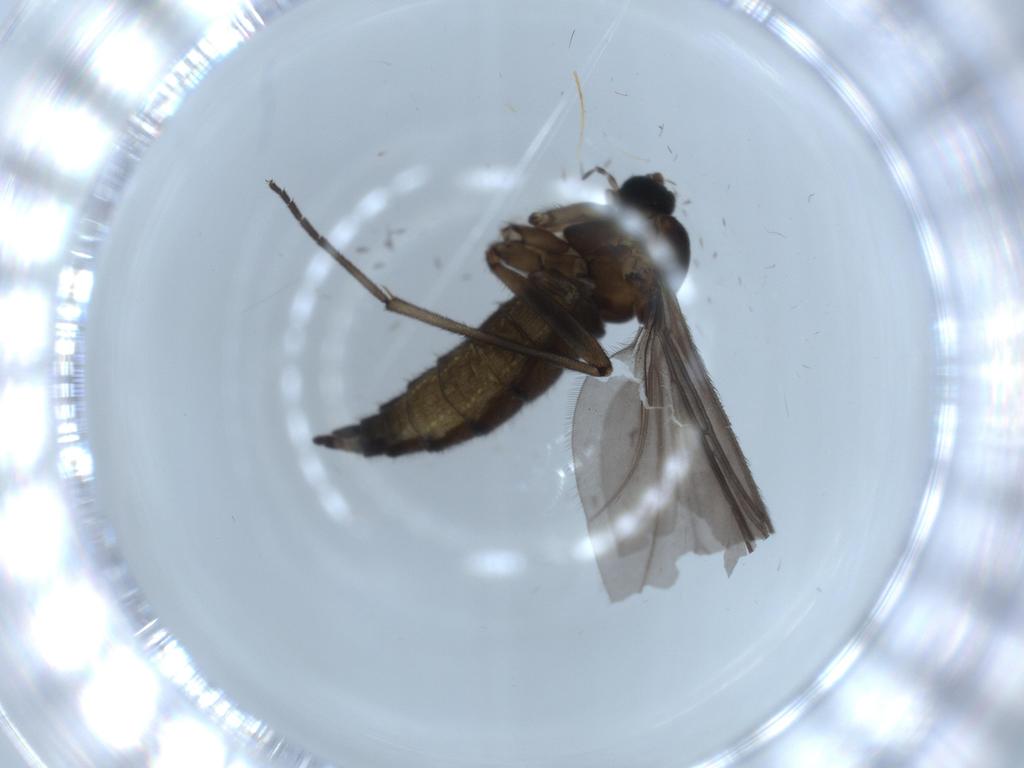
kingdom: Animalia
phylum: Arthropoda
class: Insecta
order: Diptera
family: Sciaridae
